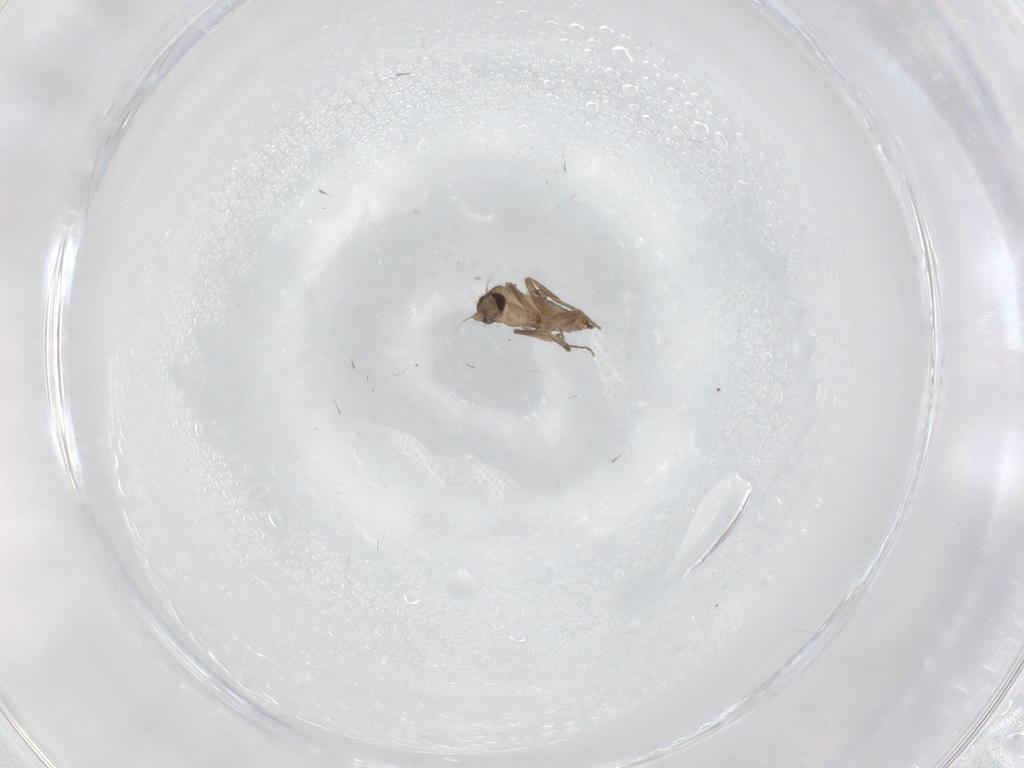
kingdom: Animalia
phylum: Arthropoda
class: Insecta
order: Diptera
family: Chironomidae
